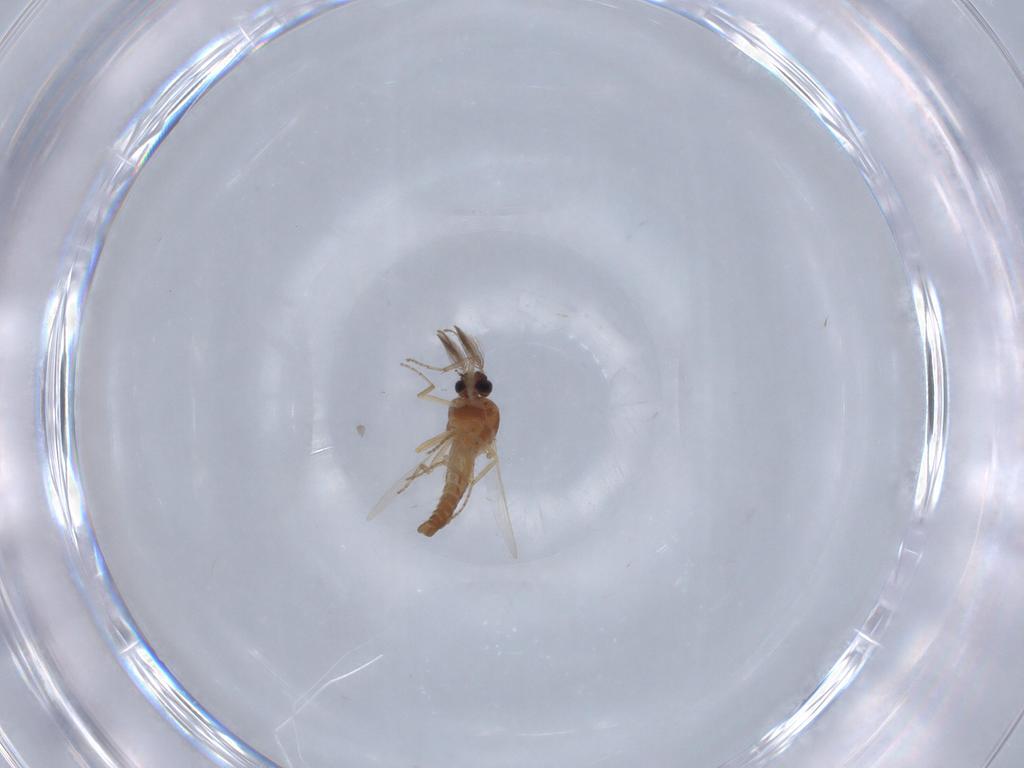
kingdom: Animalia
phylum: Arthropoda
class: Insecta
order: Diptera
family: Ceratopogonidae
